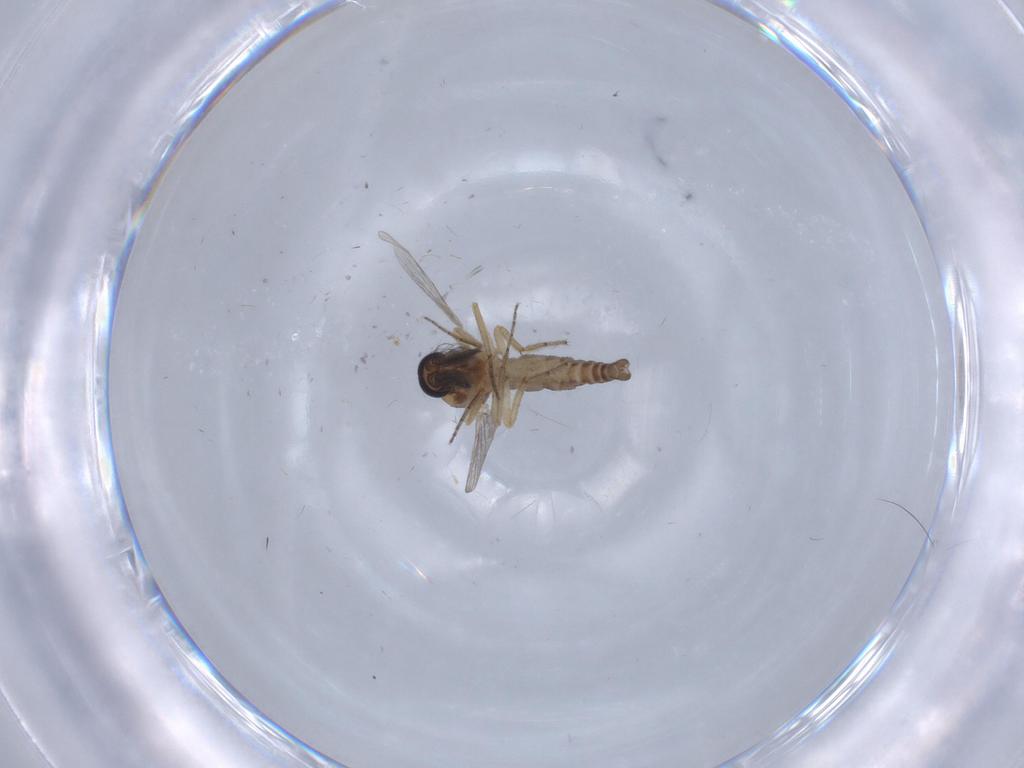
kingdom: Animalia
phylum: Arthropoda
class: Insecta
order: Diptera
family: Ceratopogonidae
